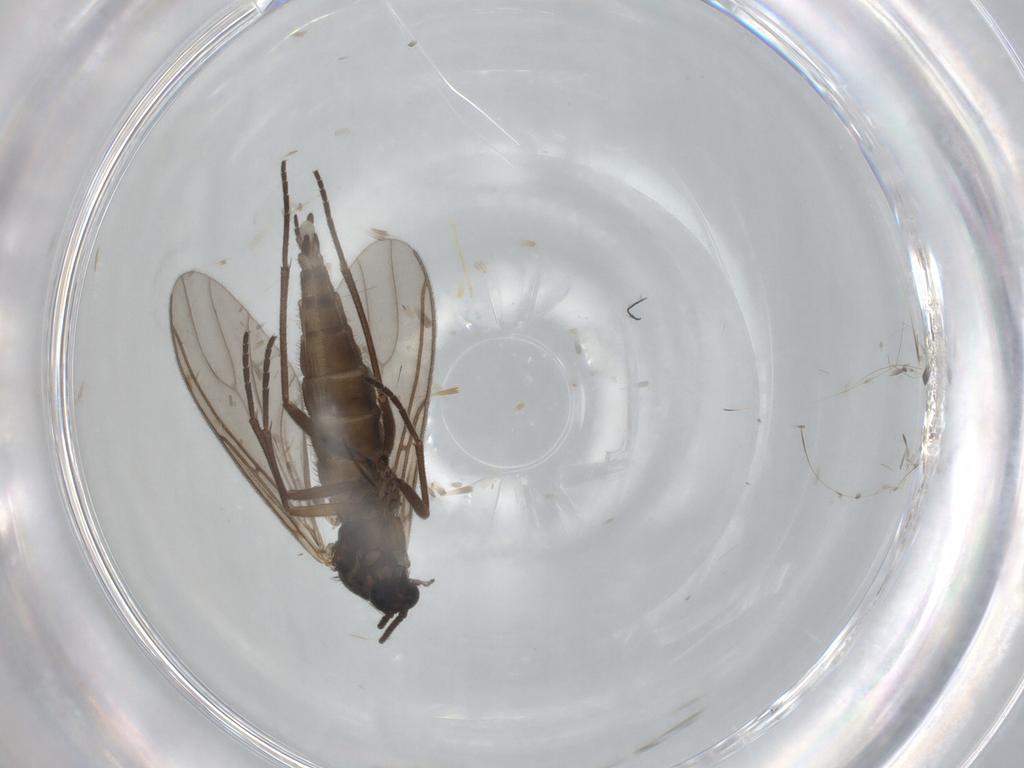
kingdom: Animalia
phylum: Arthropoda
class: Insecta
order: Diptera
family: Sciaridae
